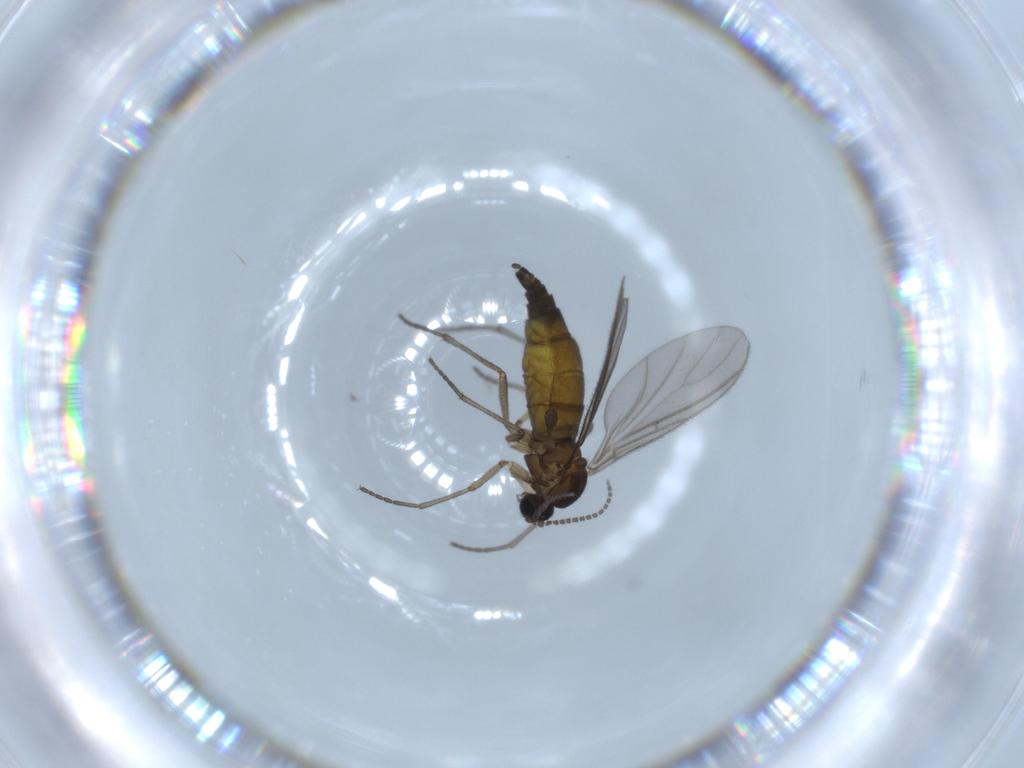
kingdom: Animalia
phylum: Arthropoda
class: Insecta
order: Diptera
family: Sciaridae
